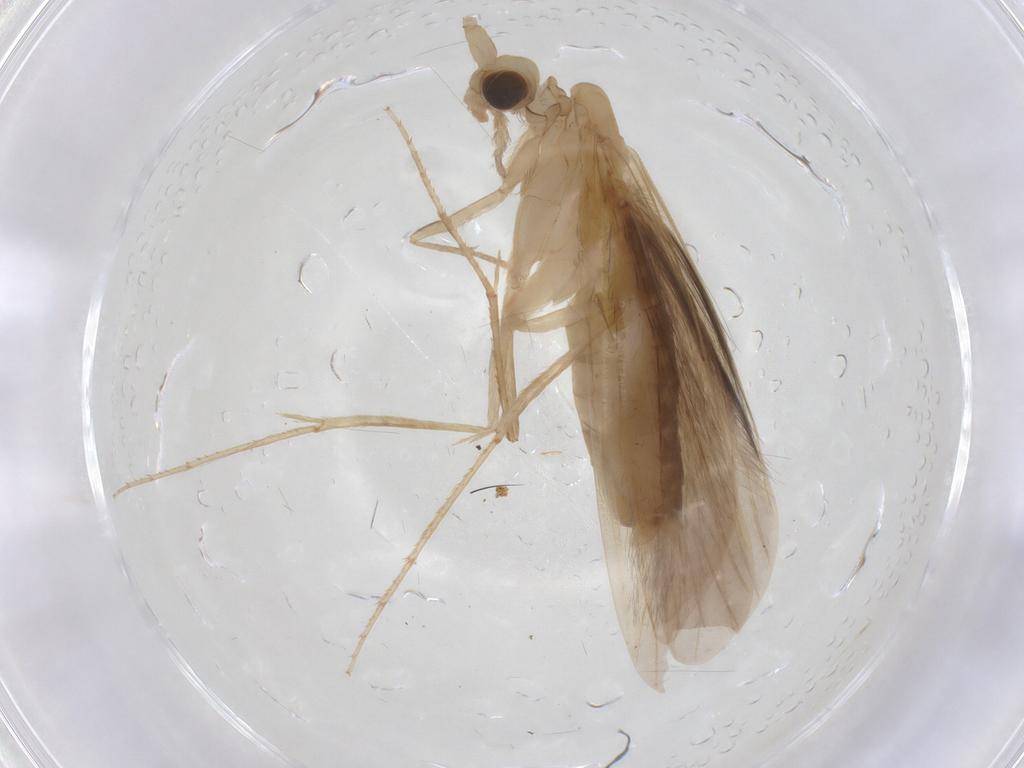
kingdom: Animalia
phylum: Arthropoda
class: Insecta
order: Trichoptera
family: Leptoceridae
